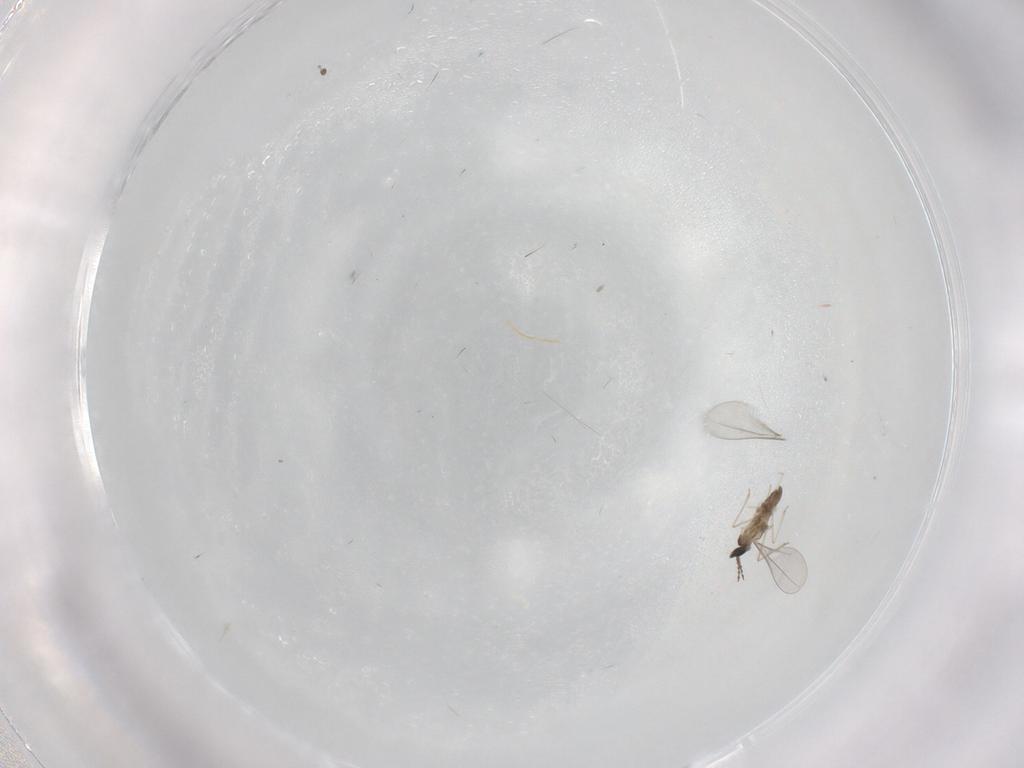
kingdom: Animalia
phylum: Arthropoda
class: Insecta
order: Diptera
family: Cecidomyiidae
